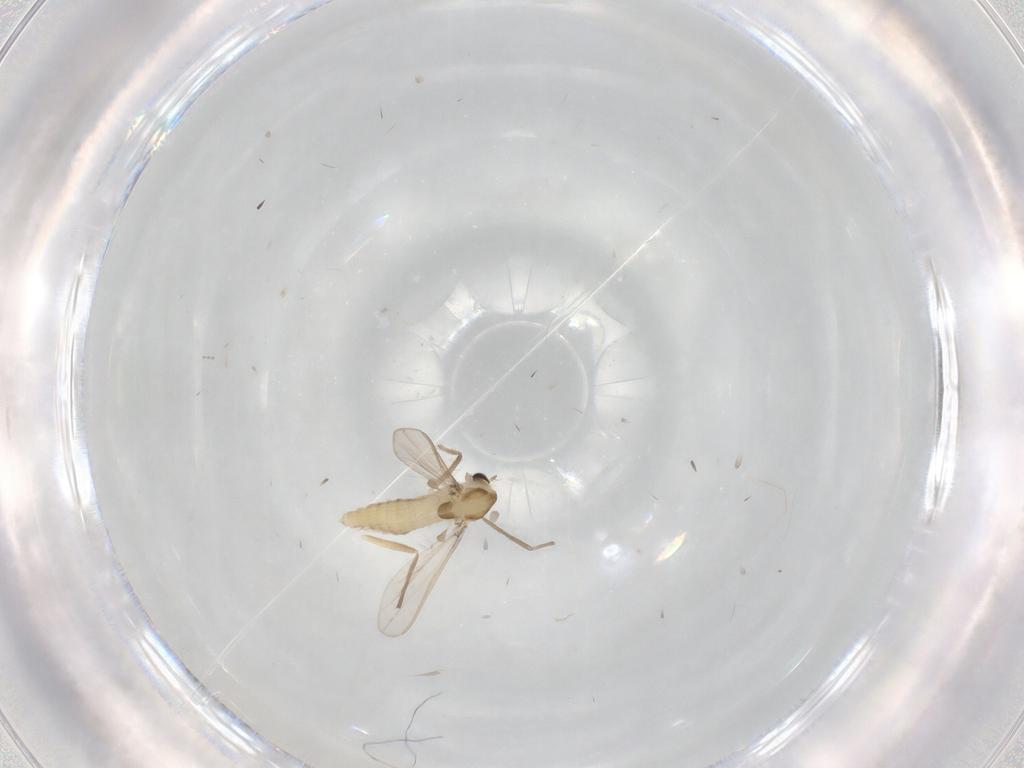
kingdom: Animalia
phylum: Arthropoda
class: Insecta
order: Diptera
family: Chironomidae
